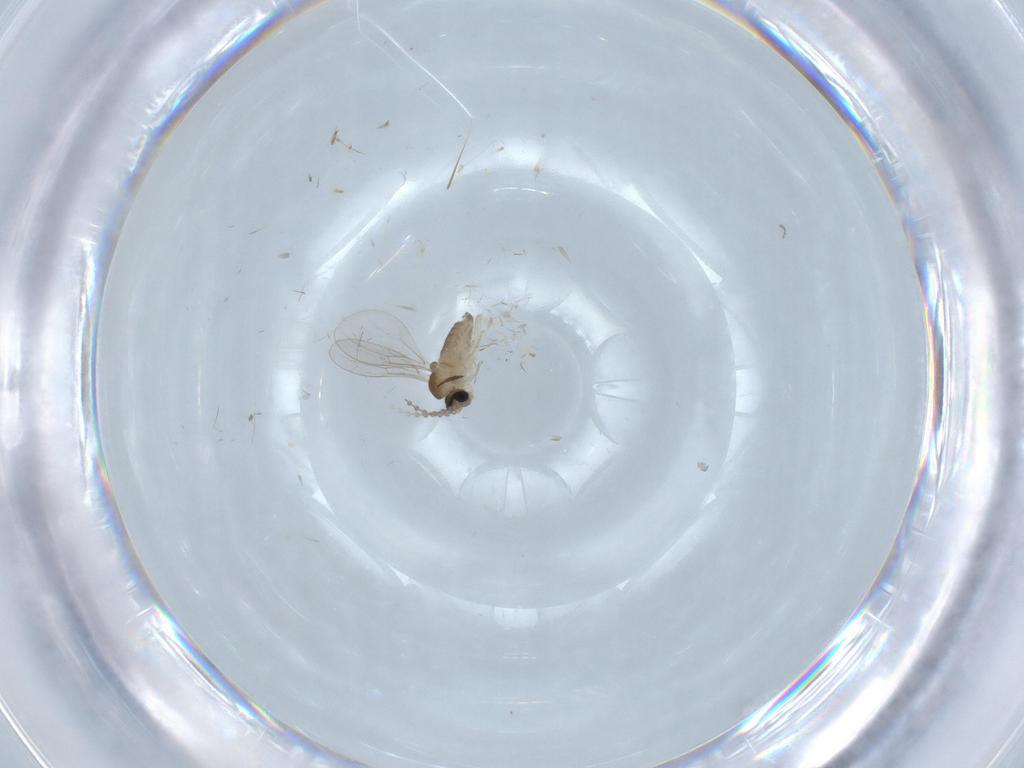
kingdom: Animalia
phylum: Arthropoda
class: Insecta
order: Diptera
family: Cecidomyiidae
